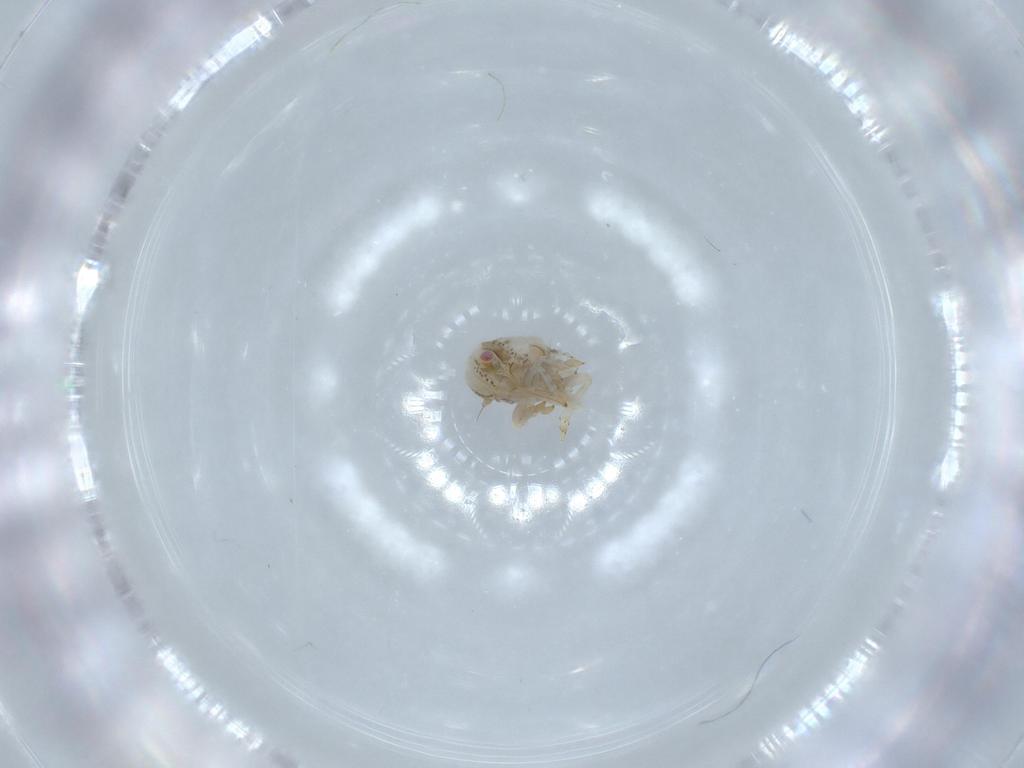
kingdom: Animalia
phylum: Arthropoda
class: Insecta
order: Hemiptera
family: Acanaloniidae
